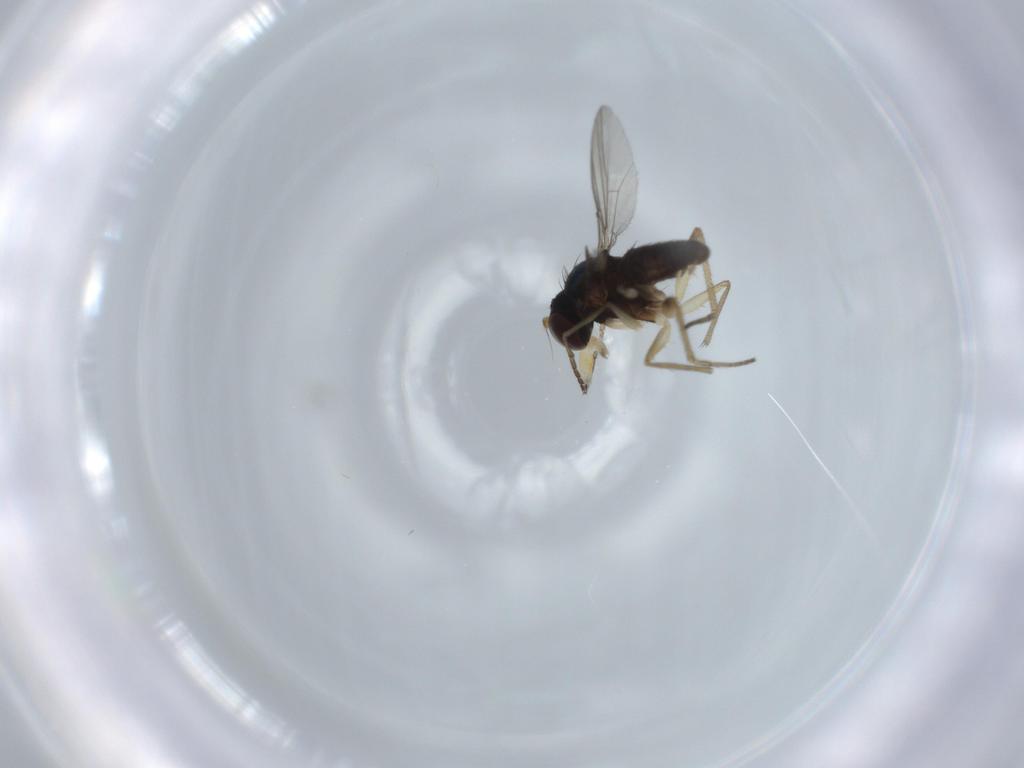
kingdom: Animalia
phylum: Arthropoda
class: Insecta
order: Diptera
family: Dolichopodidae
